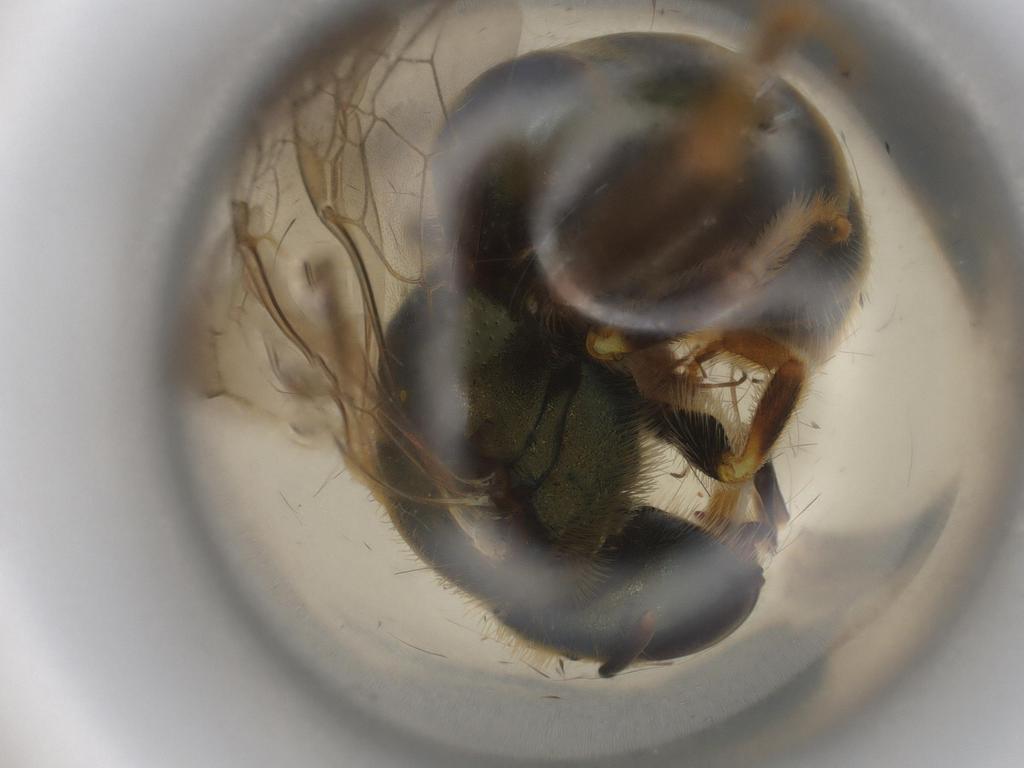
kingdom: Animalia
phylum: Arthropoda
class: Insecta
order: Hymenoptera
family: Halictidae
